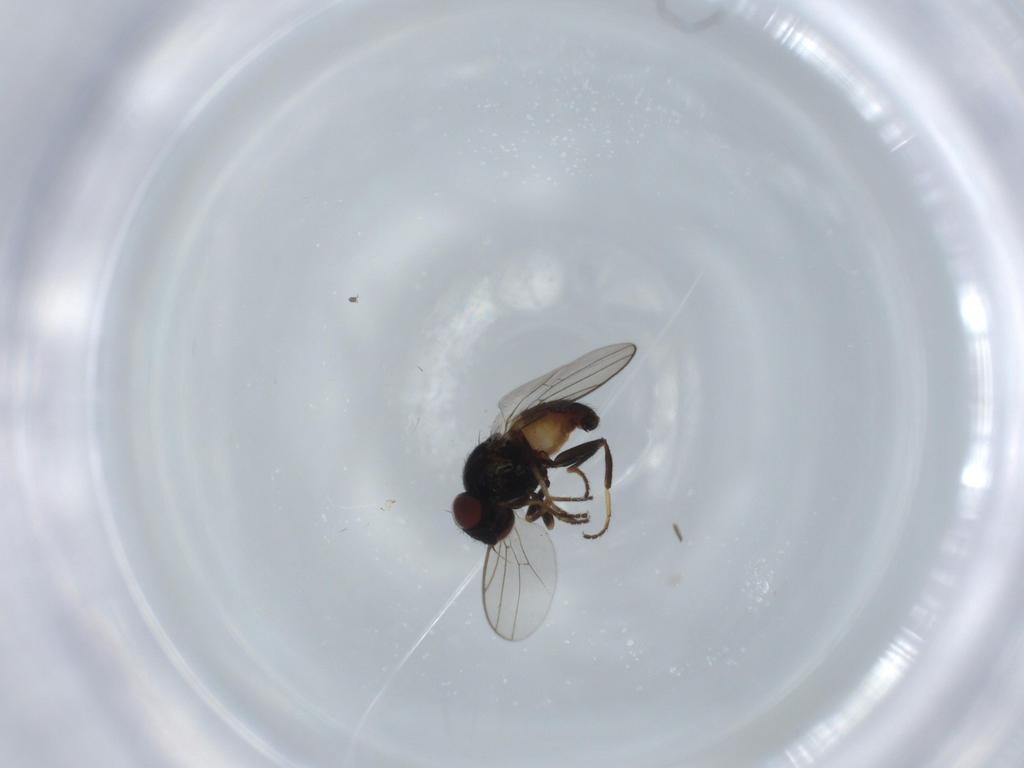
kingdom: Animalia
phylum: Arthropoda
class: Insecta
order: Diptera
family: Chloropidae
